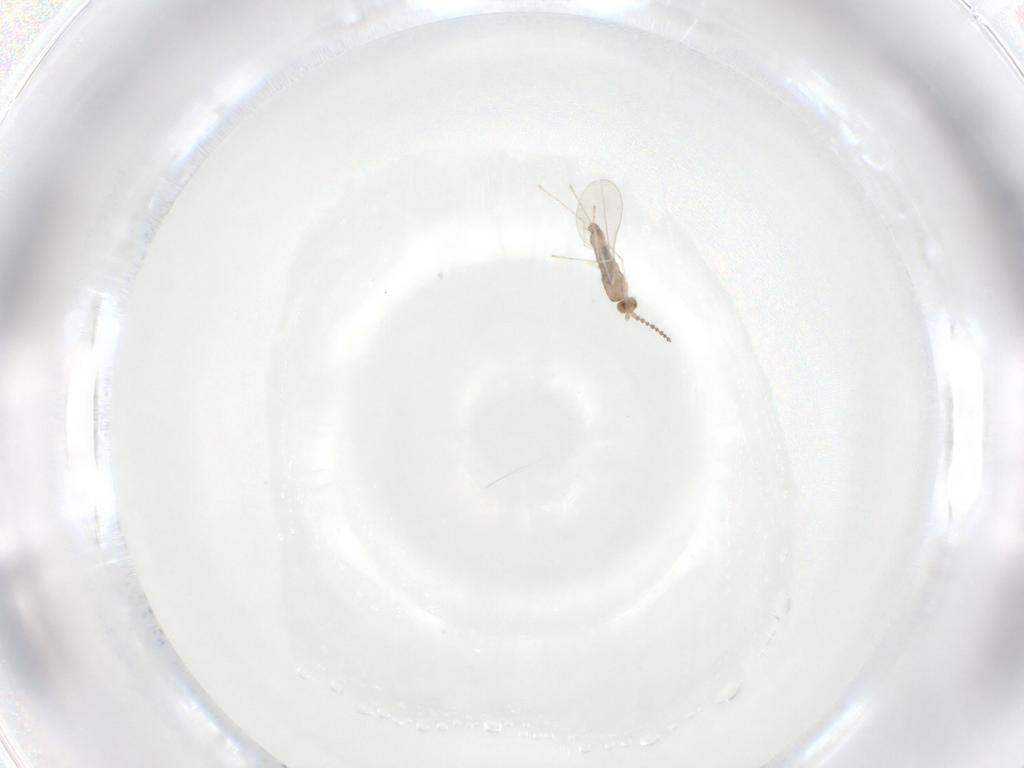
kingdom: Animalia
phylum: Arthropoda
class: Insecta
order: Diptera
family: Cecidomyiidae
